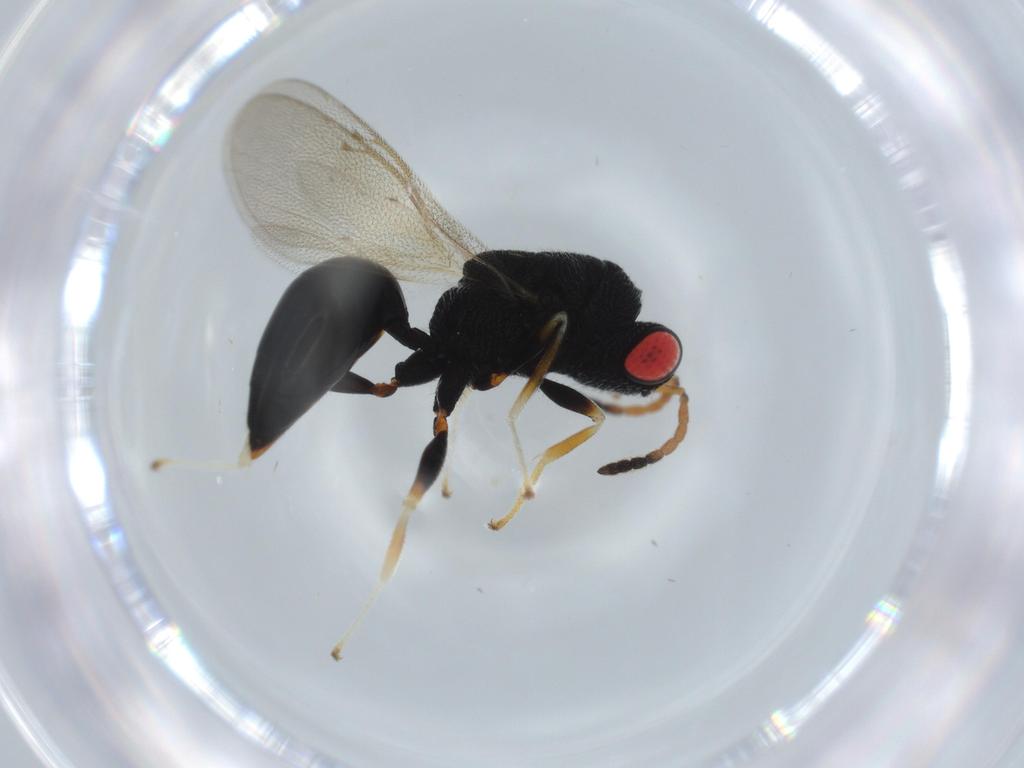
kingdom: Animalia
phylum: Arthropoda
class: Insecta
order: Hymenoptera
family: Eurytomidae
